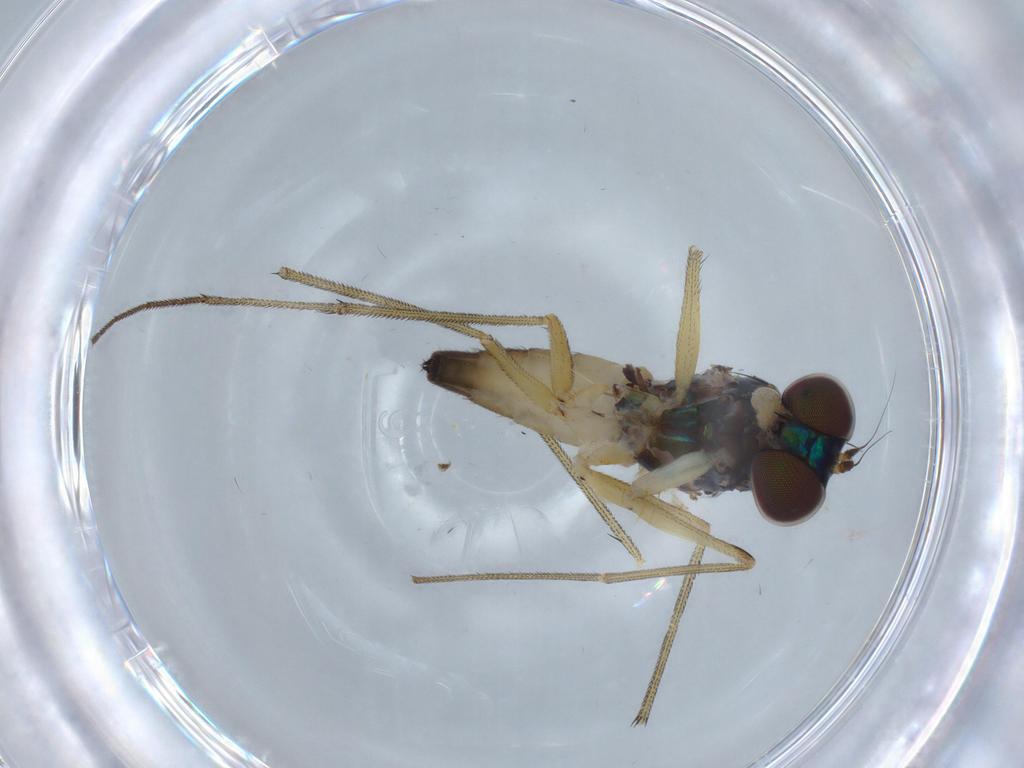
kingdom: Animalia
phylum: Arthropoda
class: Insecta
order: Diptera
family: Dolichopodidae
